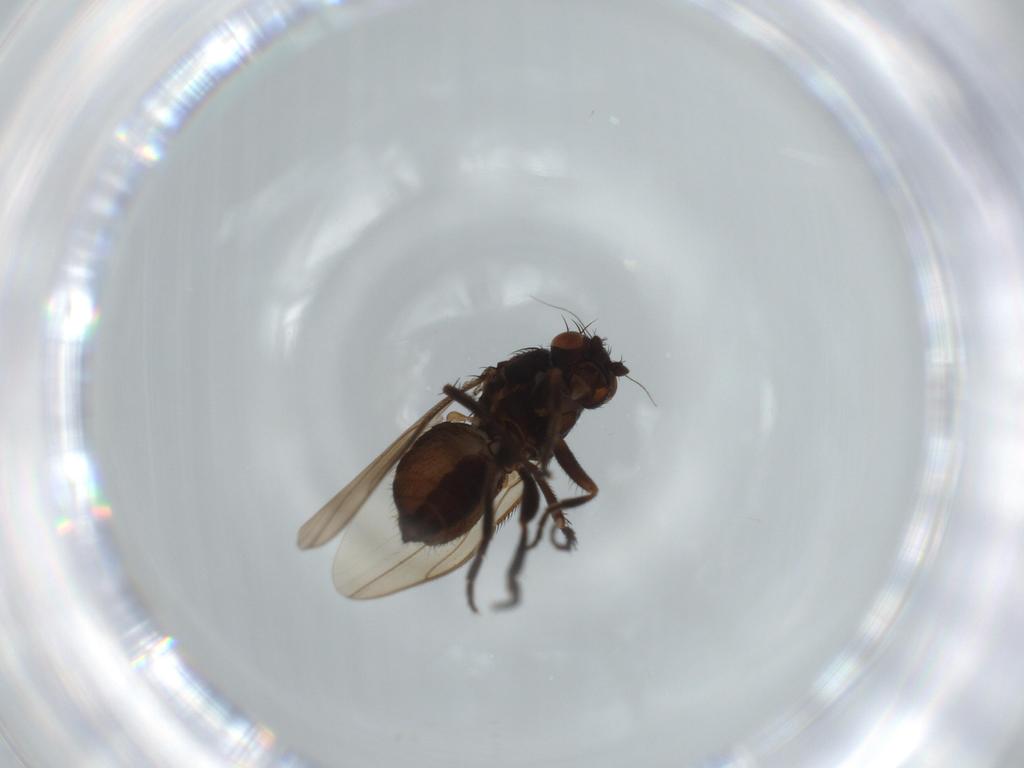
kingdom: Animalia
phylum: Arthropoda
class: Insecta
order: Diptera
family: Sphaeroceridae
